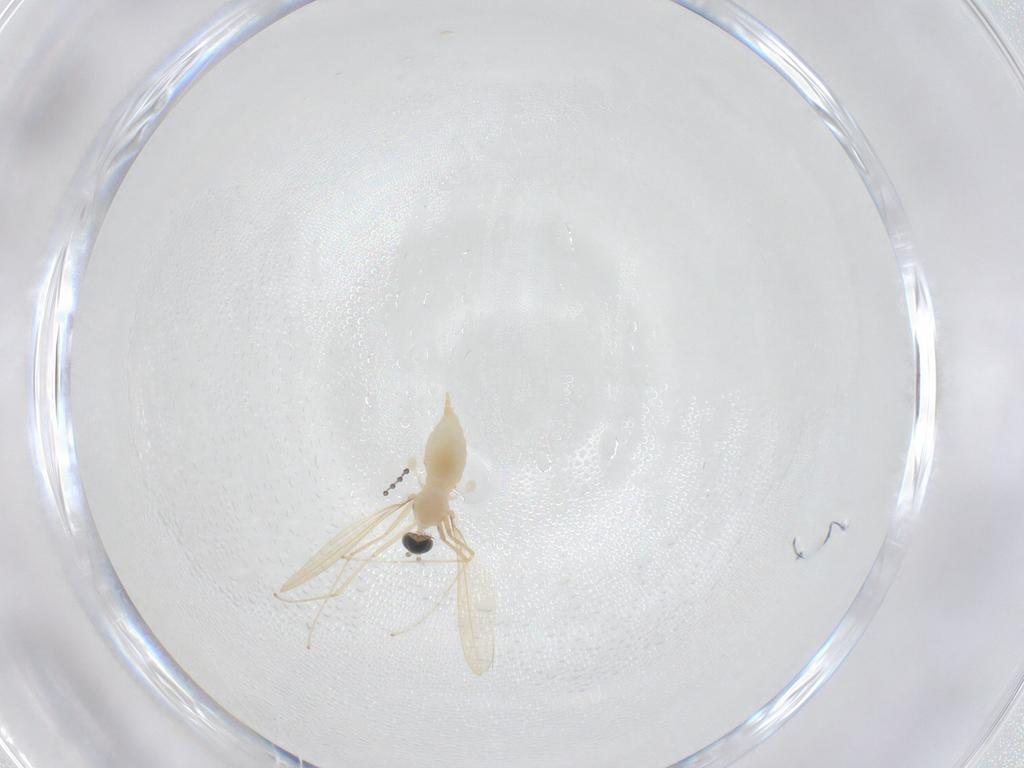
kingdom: Animalia
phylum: Arthropoda
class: Insecta
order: Diptera
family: Cecidomyiidae
